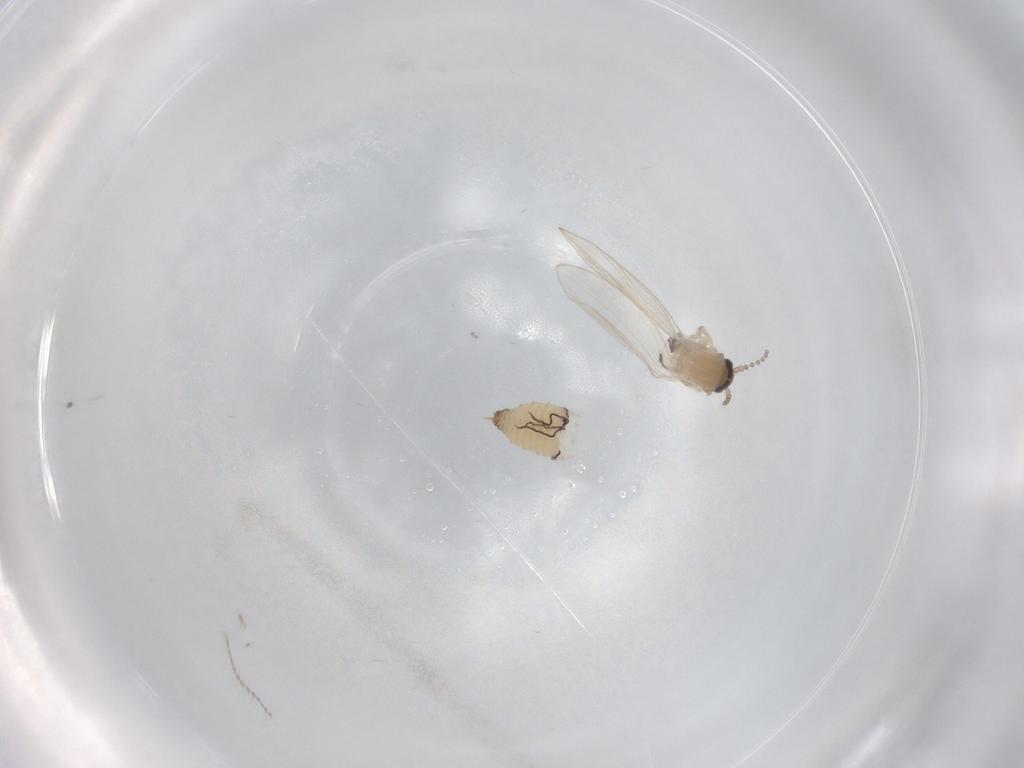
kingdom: Animalia
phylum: Arthropoda
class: Insecta
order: Diptera
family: Psychodidae
